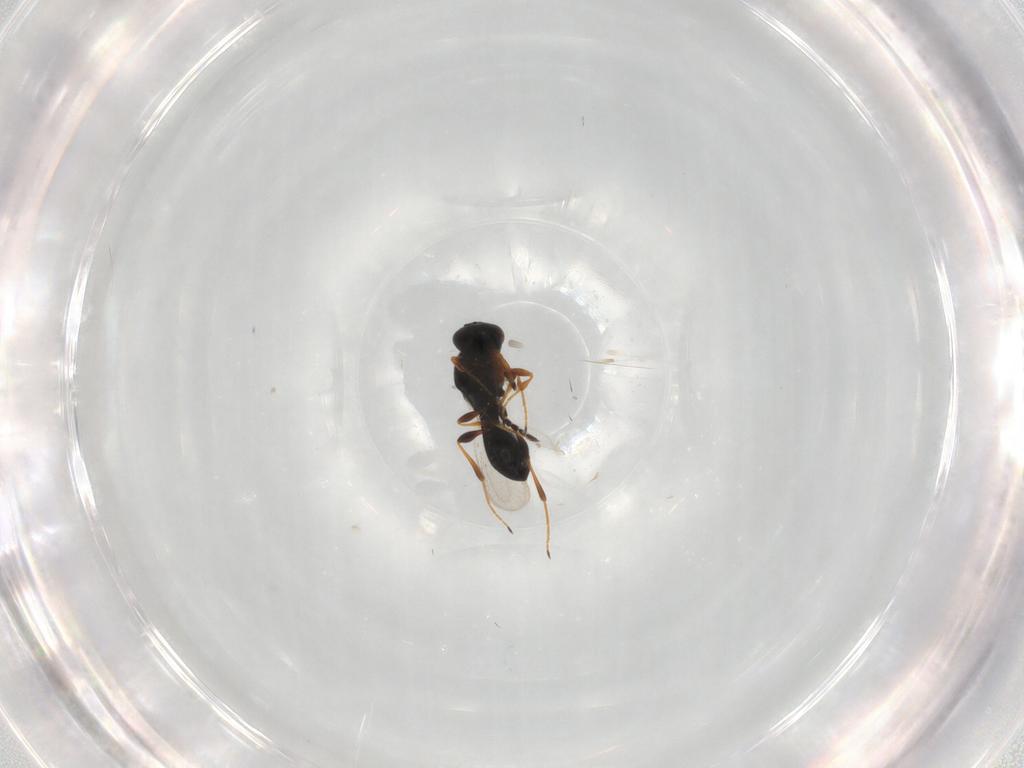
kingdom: Animalia
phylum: Arthropoda
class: Insecta
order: Hymenoptera
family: Platygastridae
